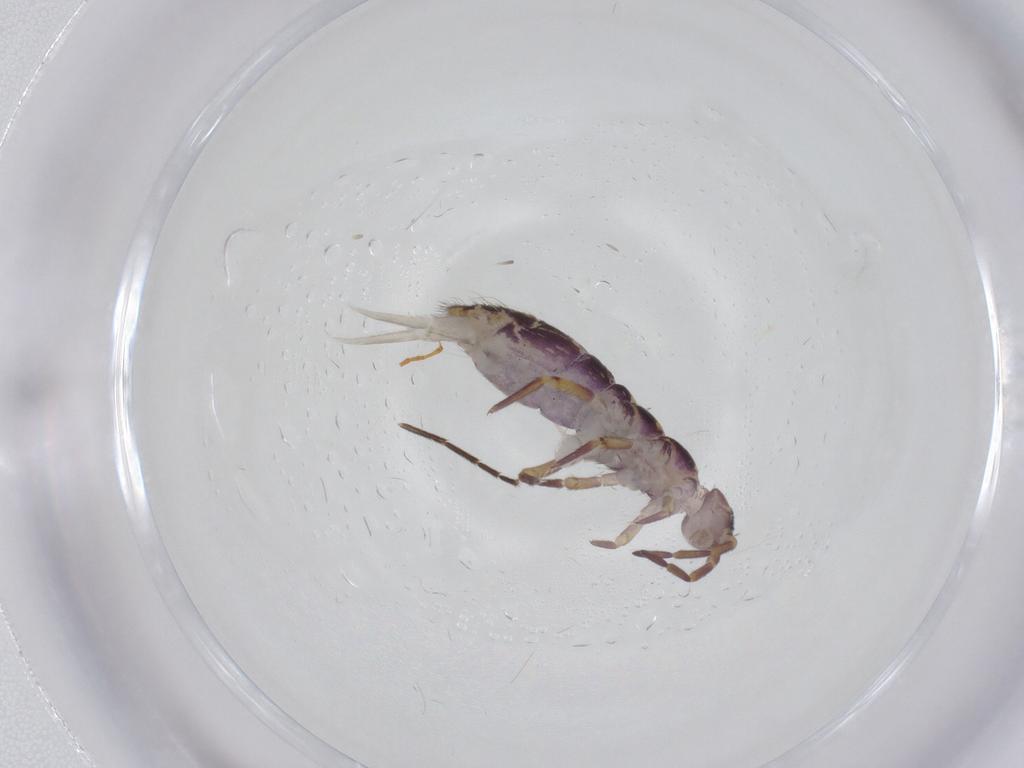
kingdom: Animalia
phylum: Arthropoda
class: Collembola
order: Entomobryomorpha
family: Isotomidae
